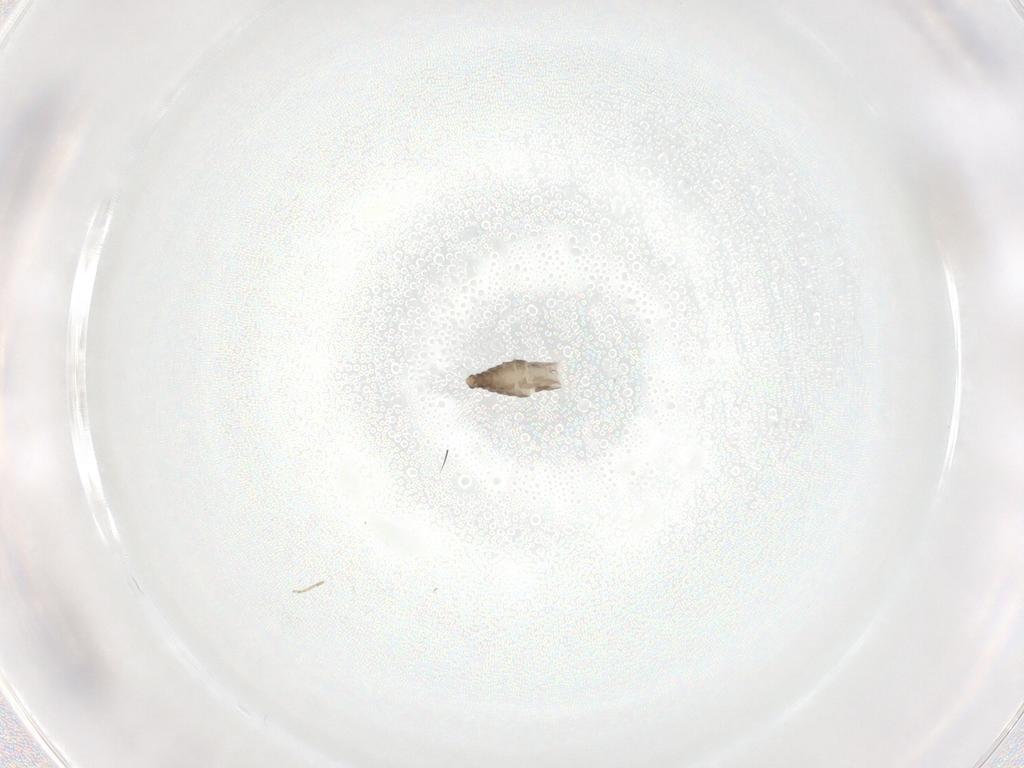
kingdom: Animalia
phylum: Arthropoda
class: Insecta
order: Diptera
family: Ceratopogonidae
